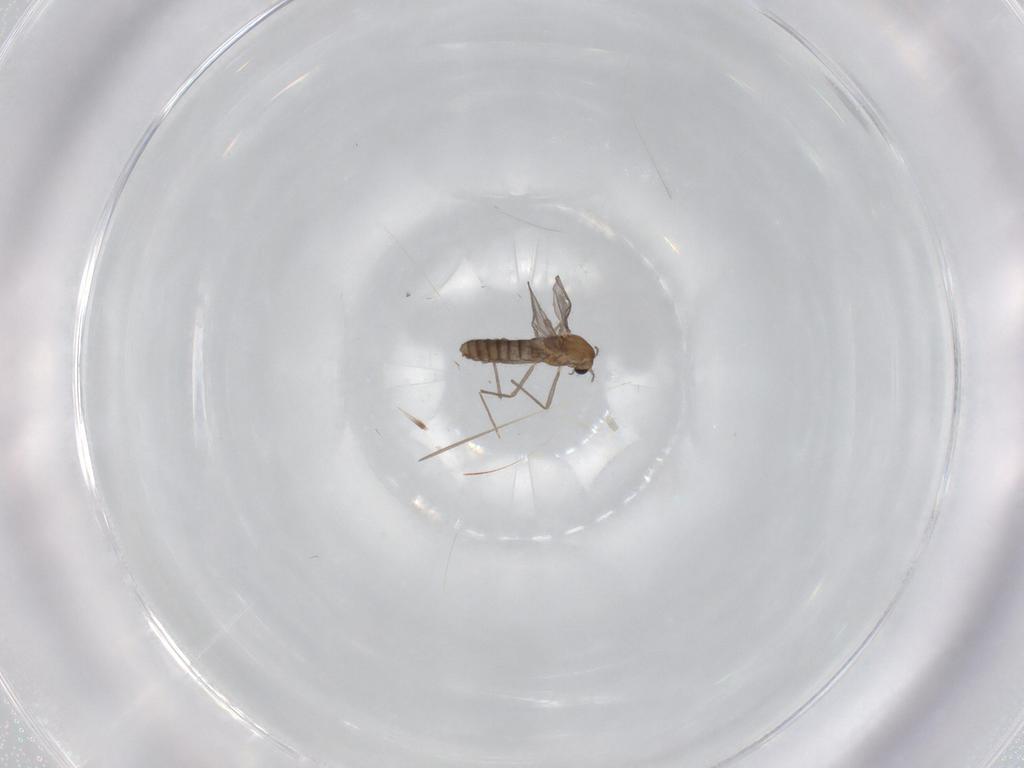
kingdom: Animalia
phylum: Arthropoda
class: Insecta
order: Diptera
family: Chironomidae
